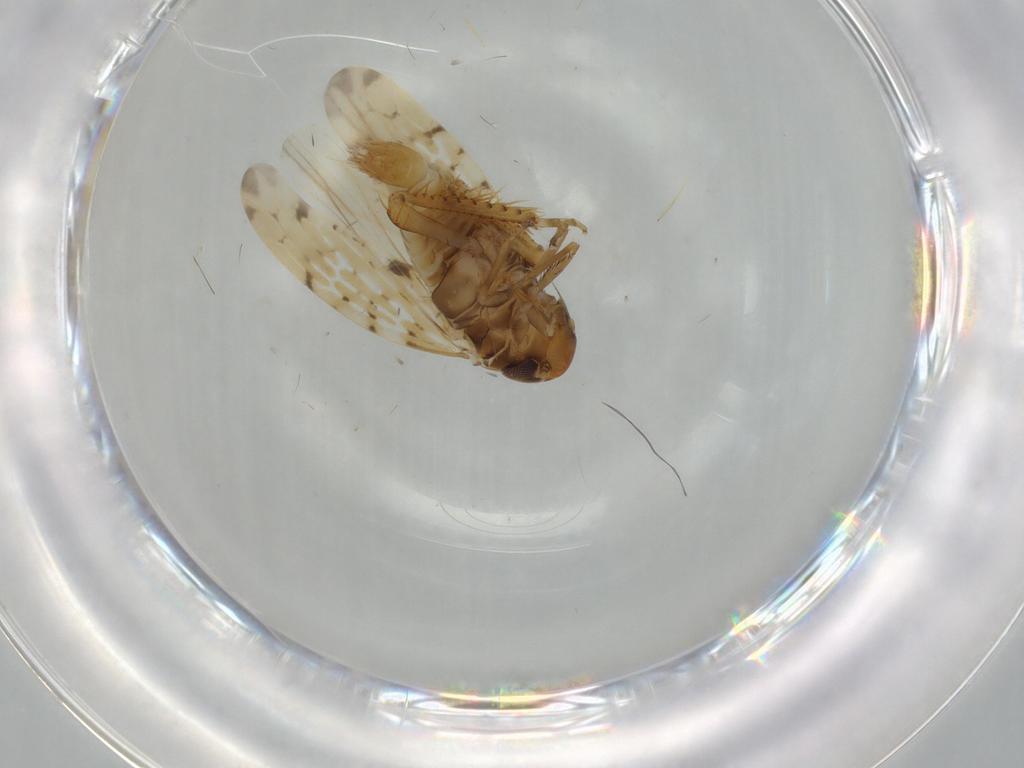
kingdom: Animalia
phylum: Arthropoda
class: Insecta
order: Hemiptera
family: Cicadellidae
